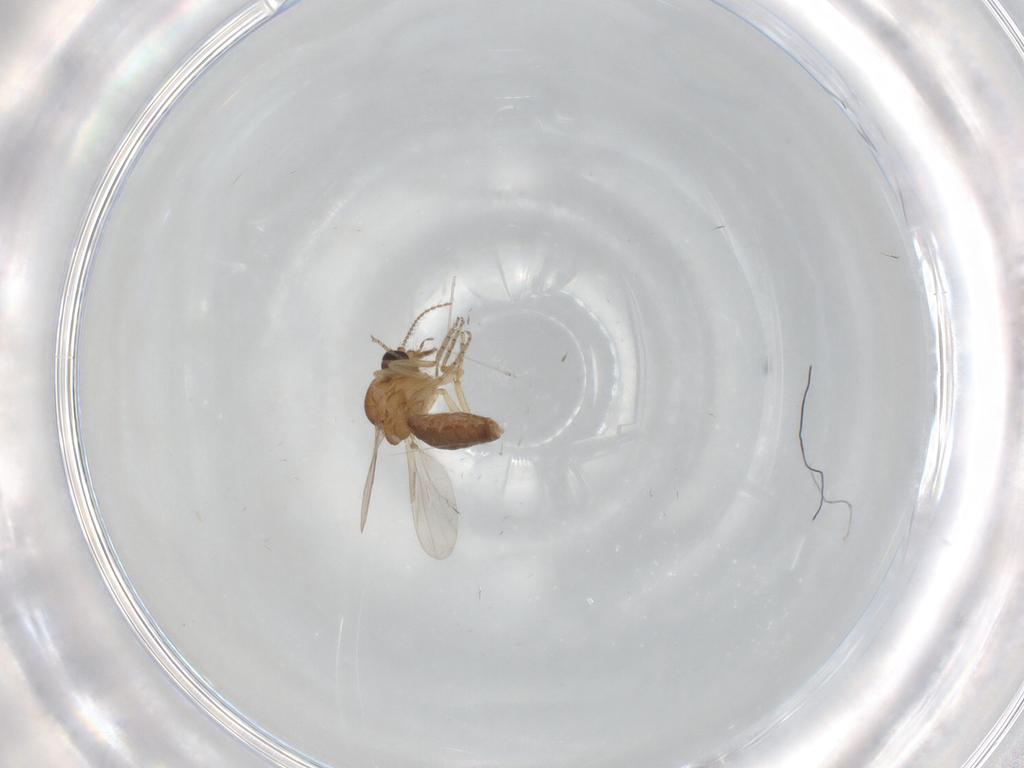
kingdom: Animalia
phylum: Arthropoda
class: Insecta
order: Diptera
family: Ceratopogonidae
